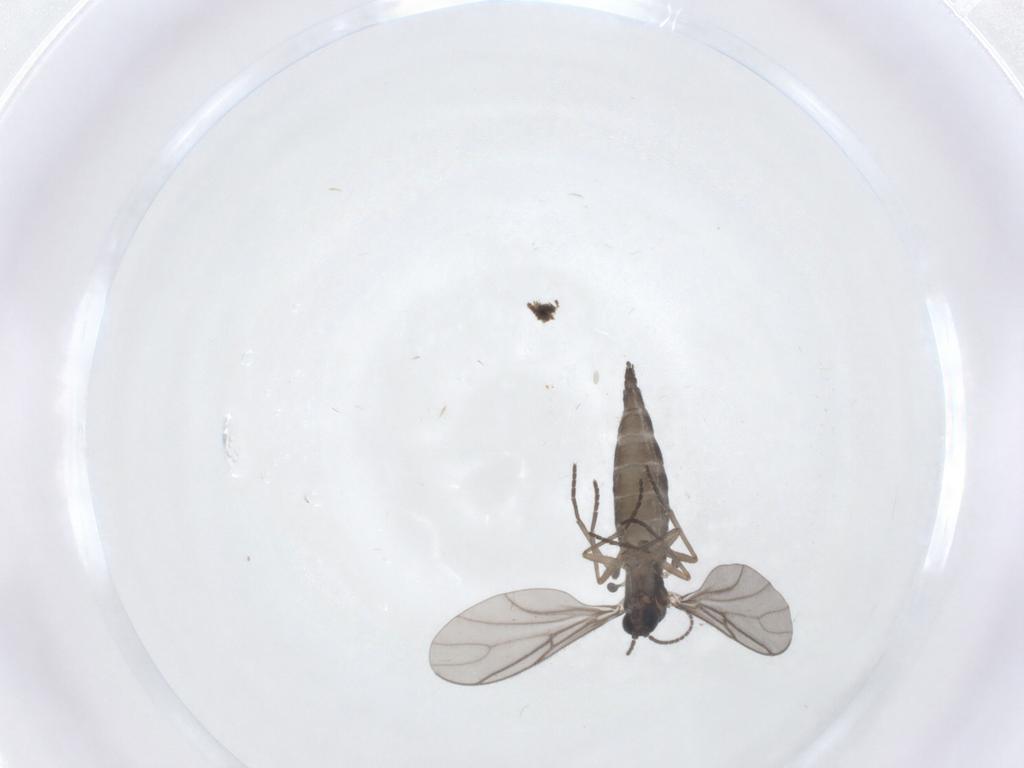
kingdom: Animalia
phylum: Arthropoda
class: Insecta
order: Diptera
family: Sciaridae
